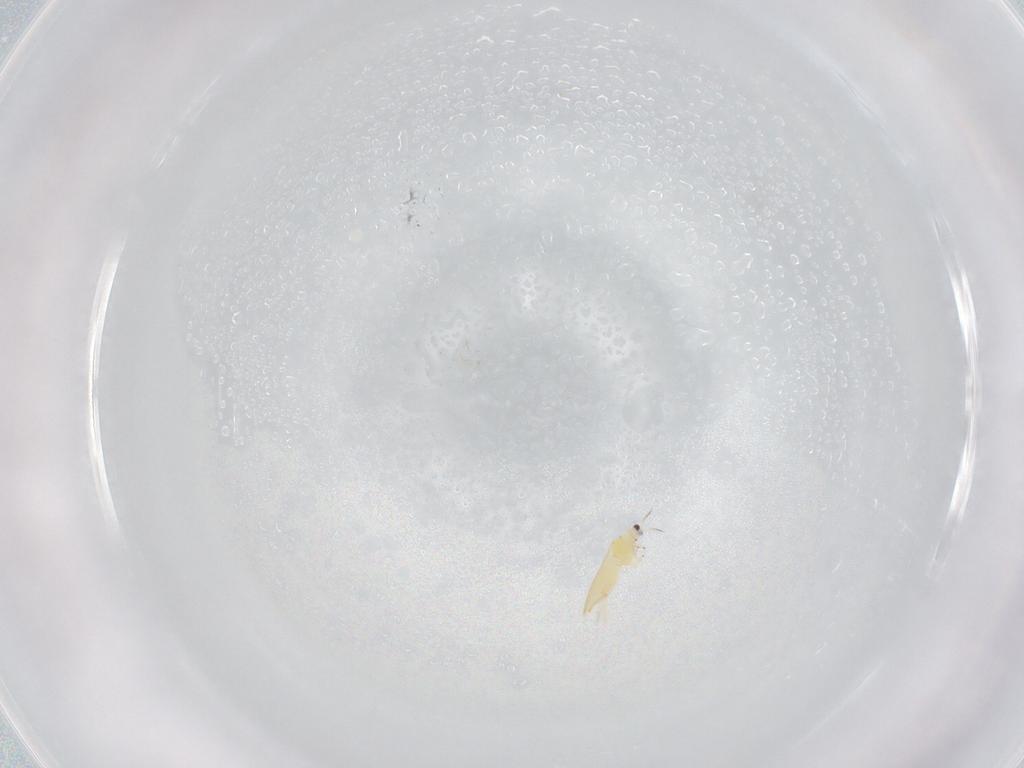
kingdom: Animalia
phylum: Arthropoda
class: Insecta
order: Thysanoptera
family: Thripidae
